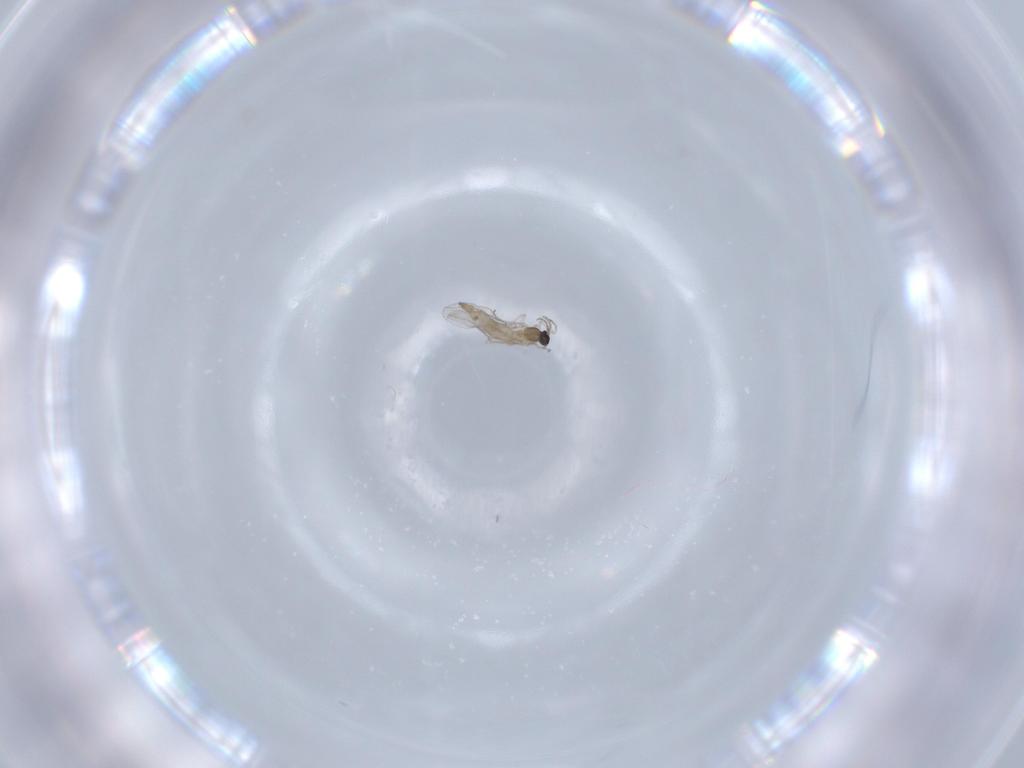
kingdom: Animalia
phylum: Arthropoda
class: Insecta
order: Diptera
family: Cecidomyiidae
